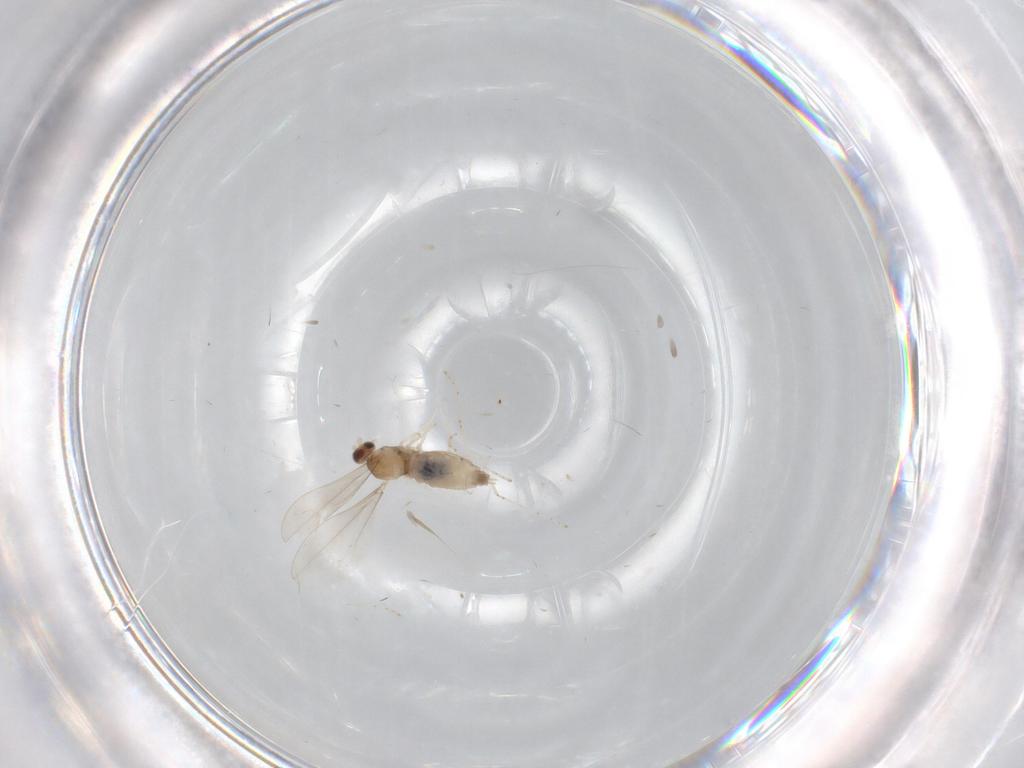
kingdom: Animalia
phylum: Arthropoda
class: Insecta
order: Diptera
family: Cecidomyiidae
